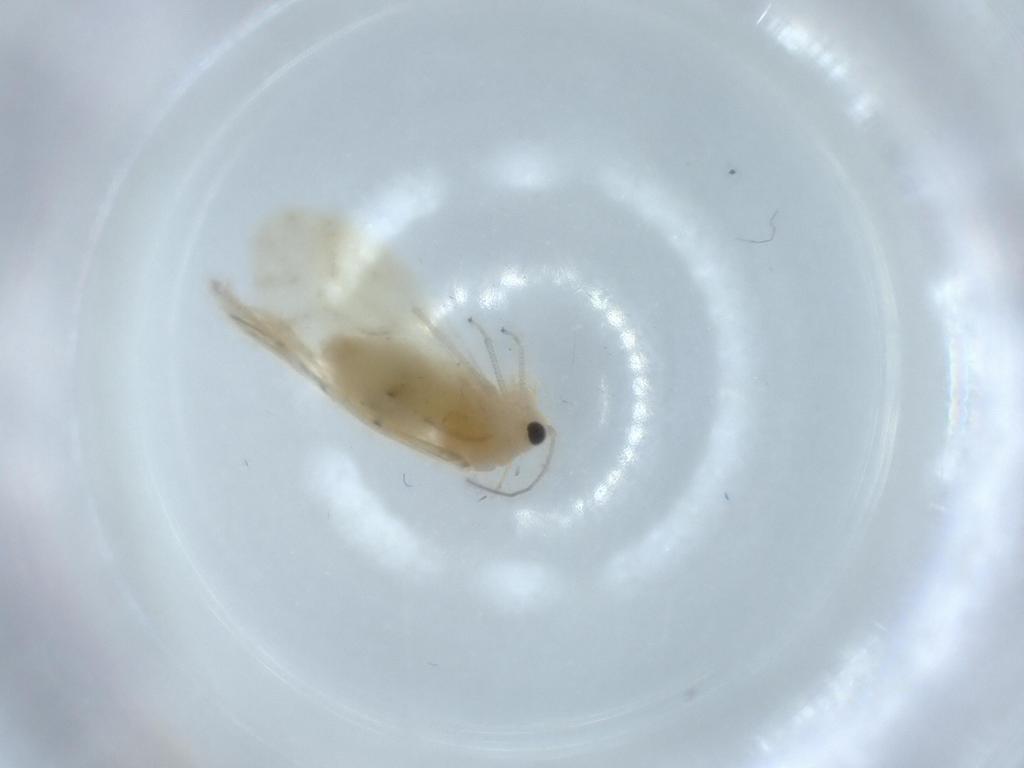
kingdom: Animalia
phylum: Arthropoda
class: Insecta
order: Psocodea
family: Caeciliusidae
